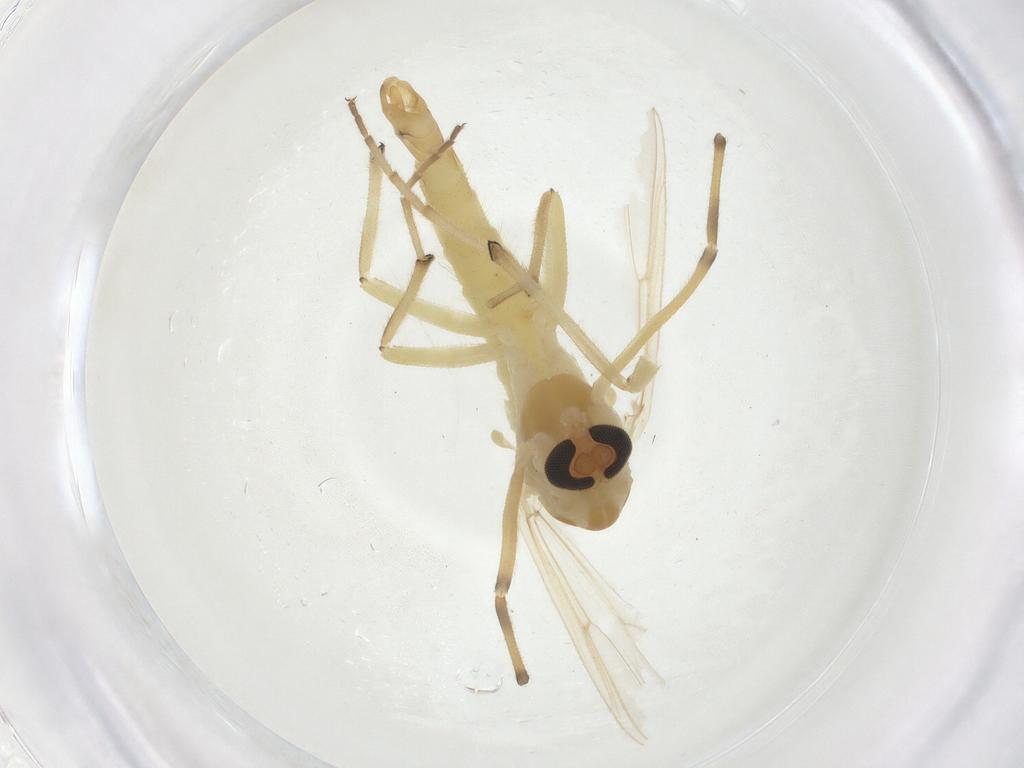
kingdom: Animalia
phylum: Arthropoda
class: Insecta
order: Diptera
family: Chironomidae
